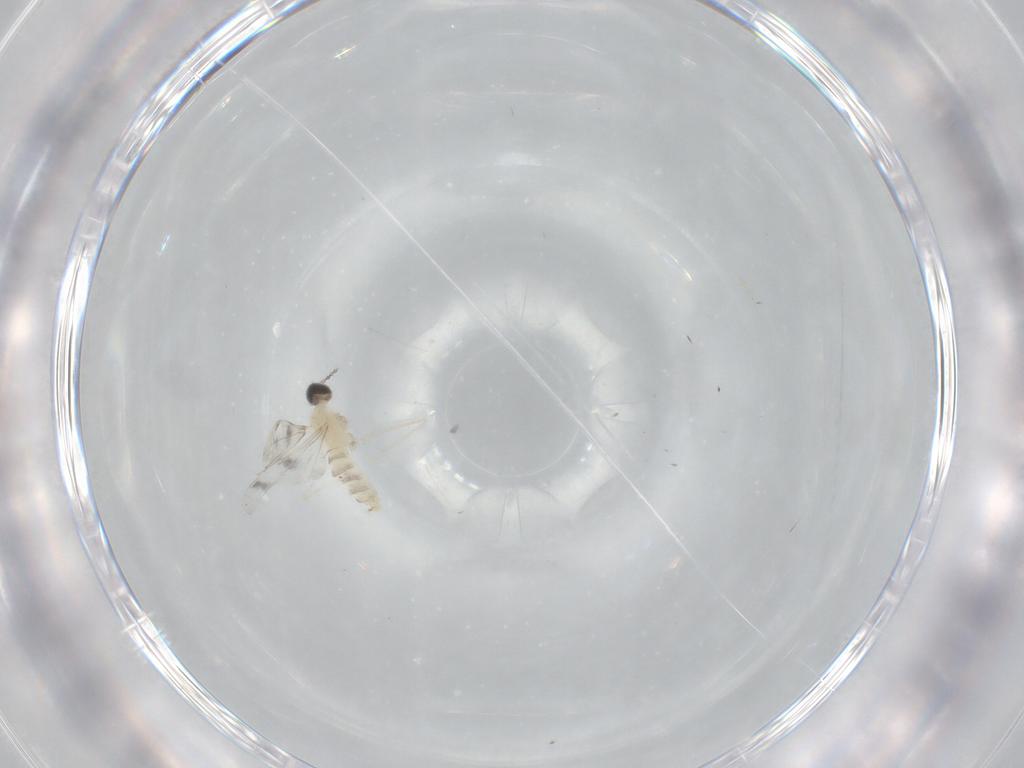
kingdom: Animalia
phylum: Arthropoda
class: Insecta
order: Diptera
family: Cecidomyiidae
